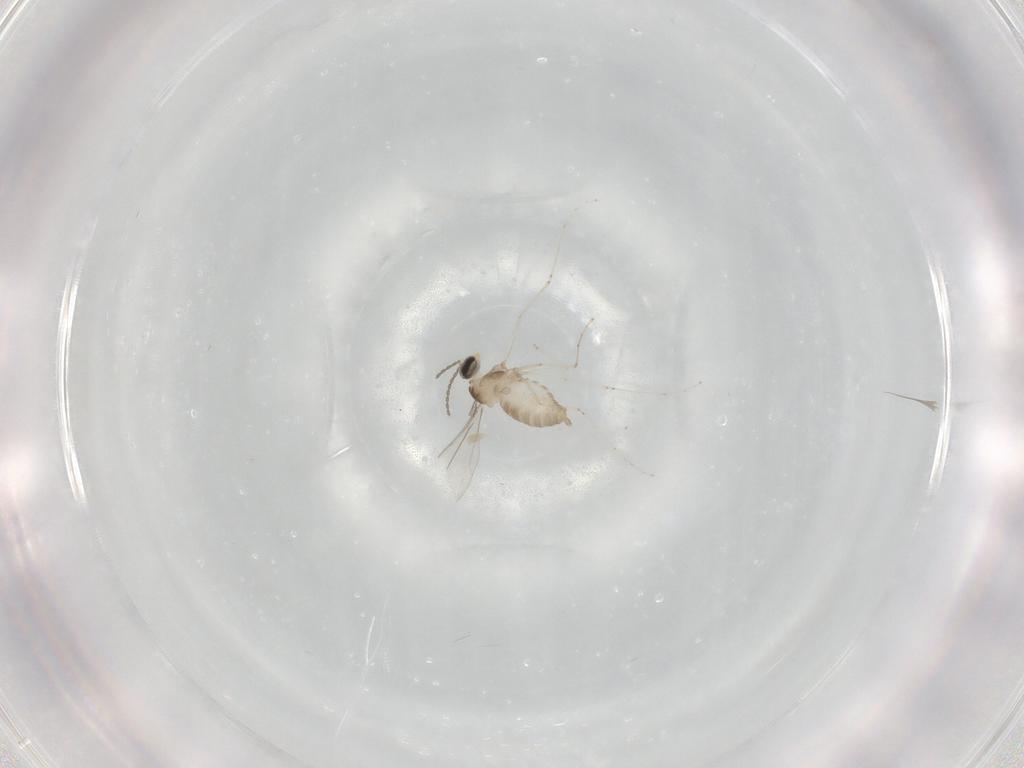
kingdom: Animalia
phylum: Arthropoda
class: Insecta
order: Diptera
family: Cecidomyiidae
